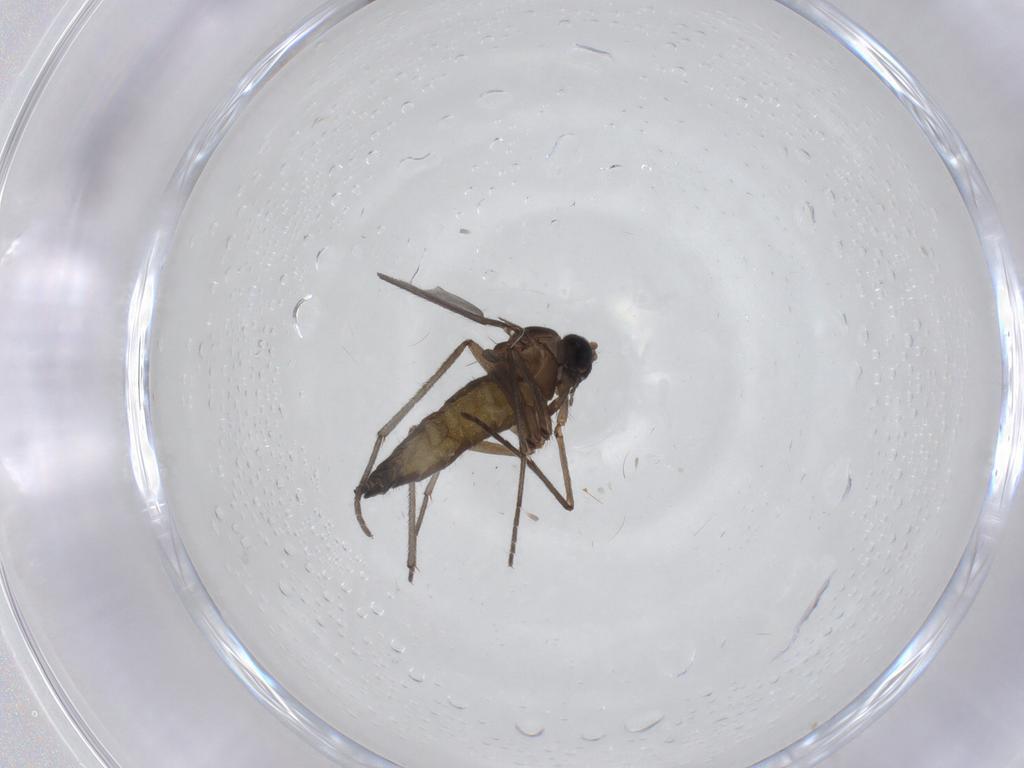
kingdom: Animalia
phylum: Arthropoda
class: Insecta
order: Diptera
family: Sciaridae
